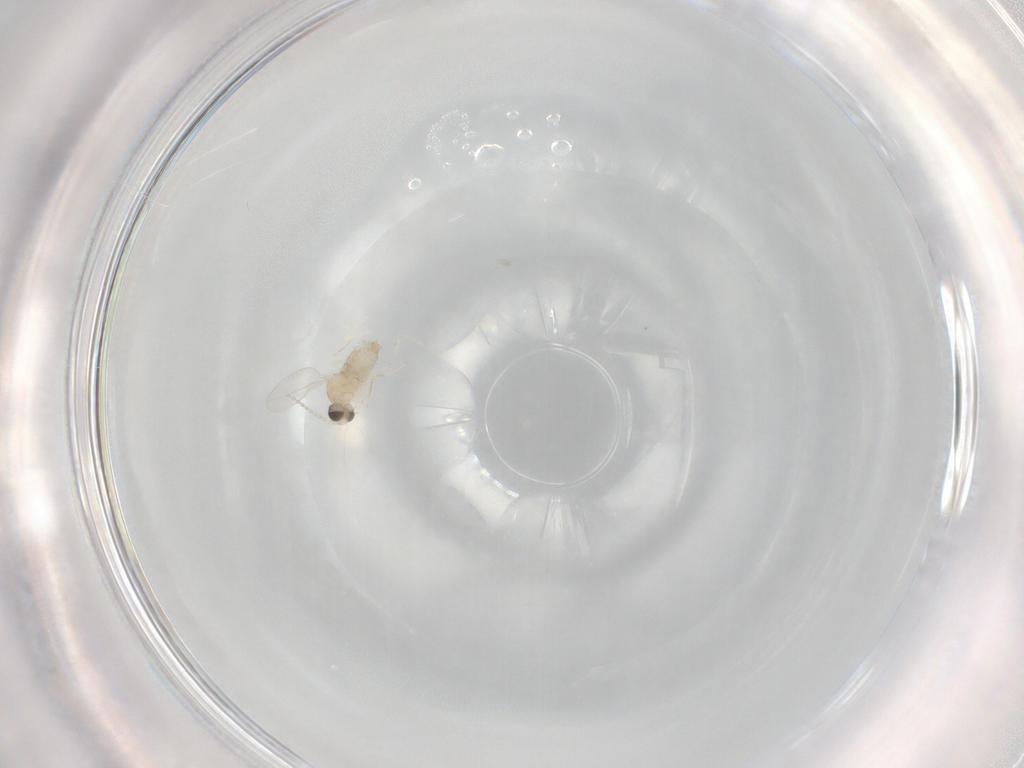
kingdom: Animalia
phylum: Arthropoda
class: Insecta
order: Diptera
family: Cecidomyiidae
